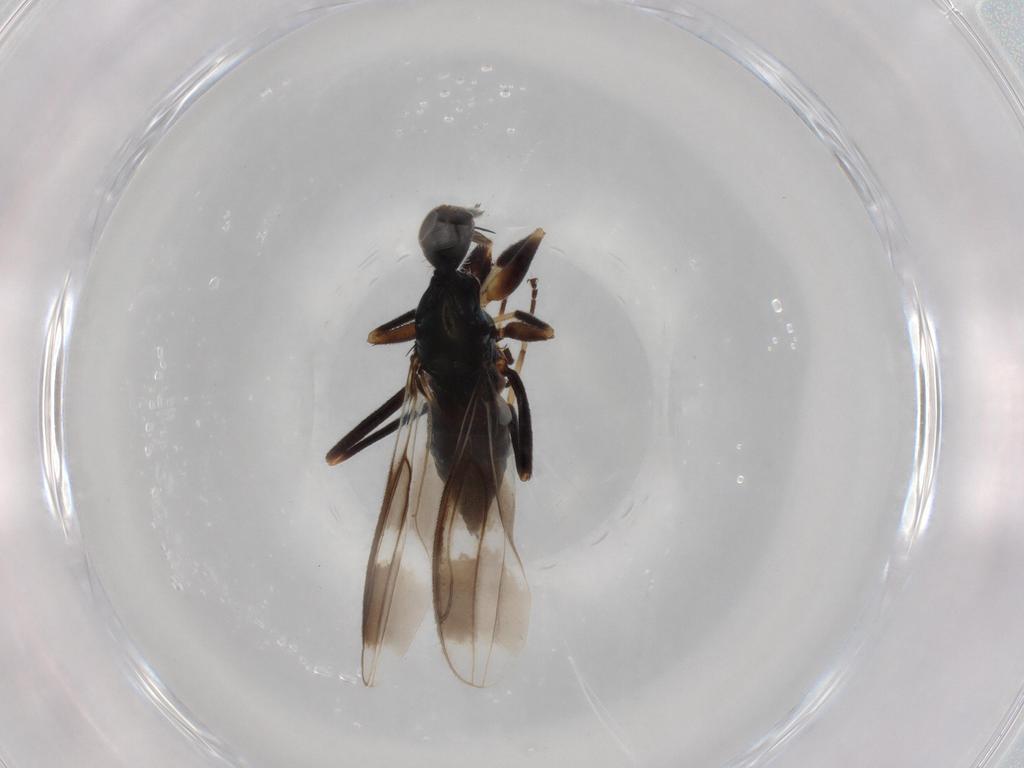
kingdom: Animalia
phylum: Arthropoda
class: Insecta
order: Diptera
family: Hybotidae
